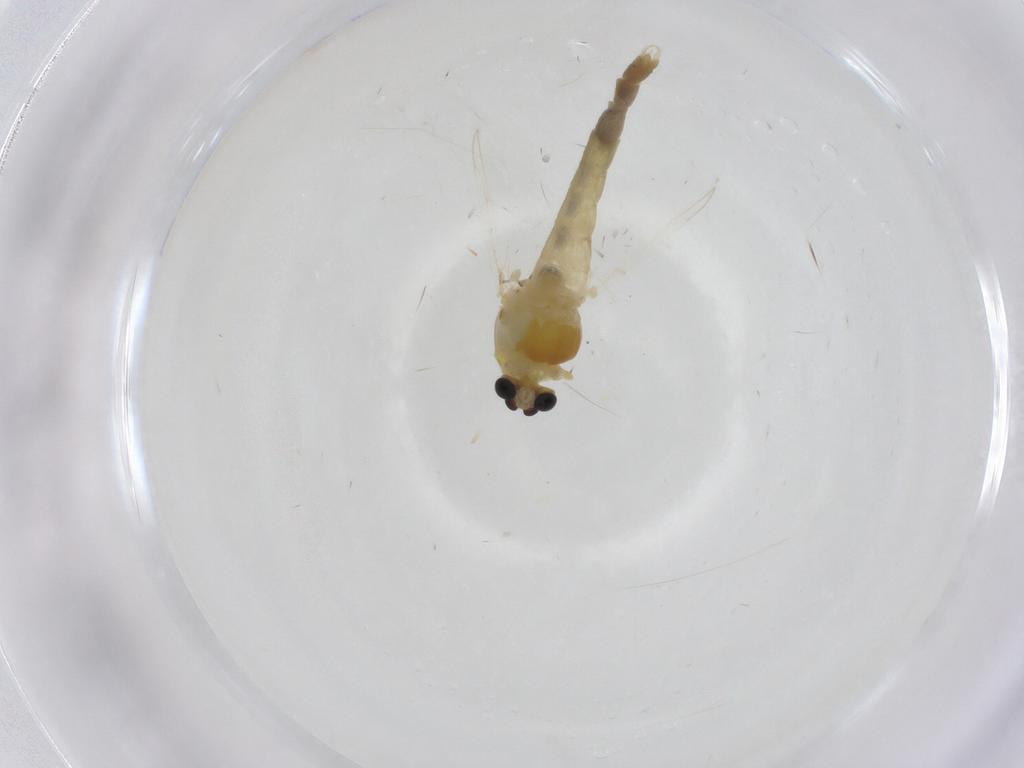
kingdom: Animalia
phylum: Arthropoda
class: Insecta
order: Diptera
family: Chironomidae
